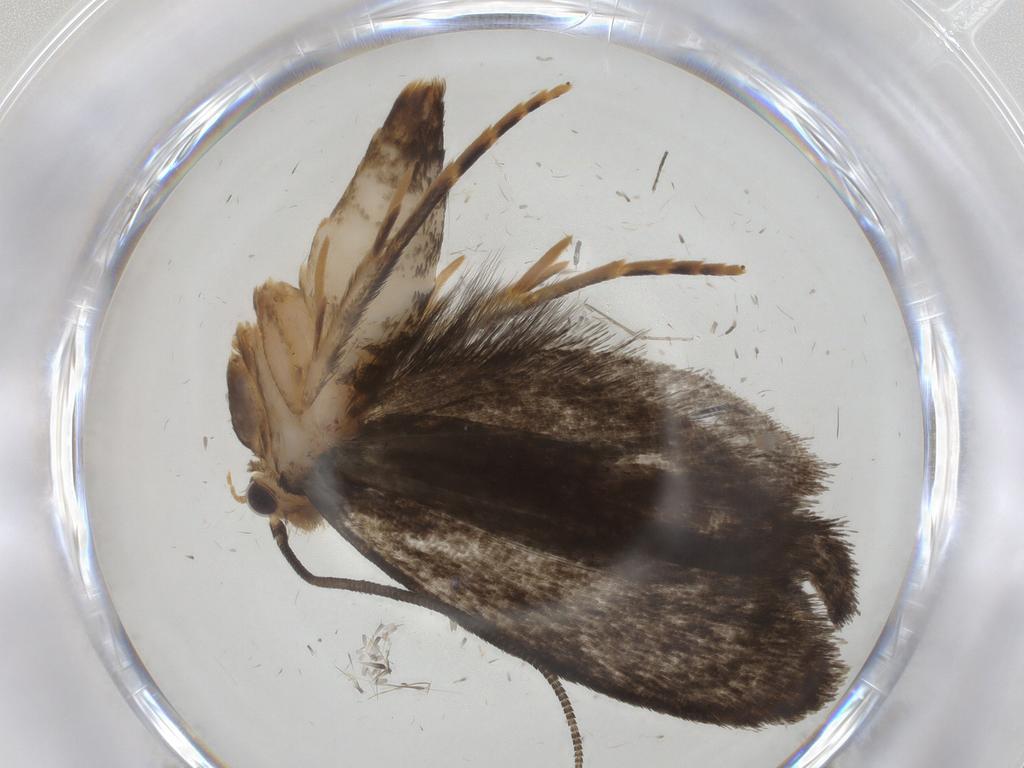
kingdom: Animalia
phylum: Arthropoda
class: Insecta
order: Lepidoptera
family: Tineidae
